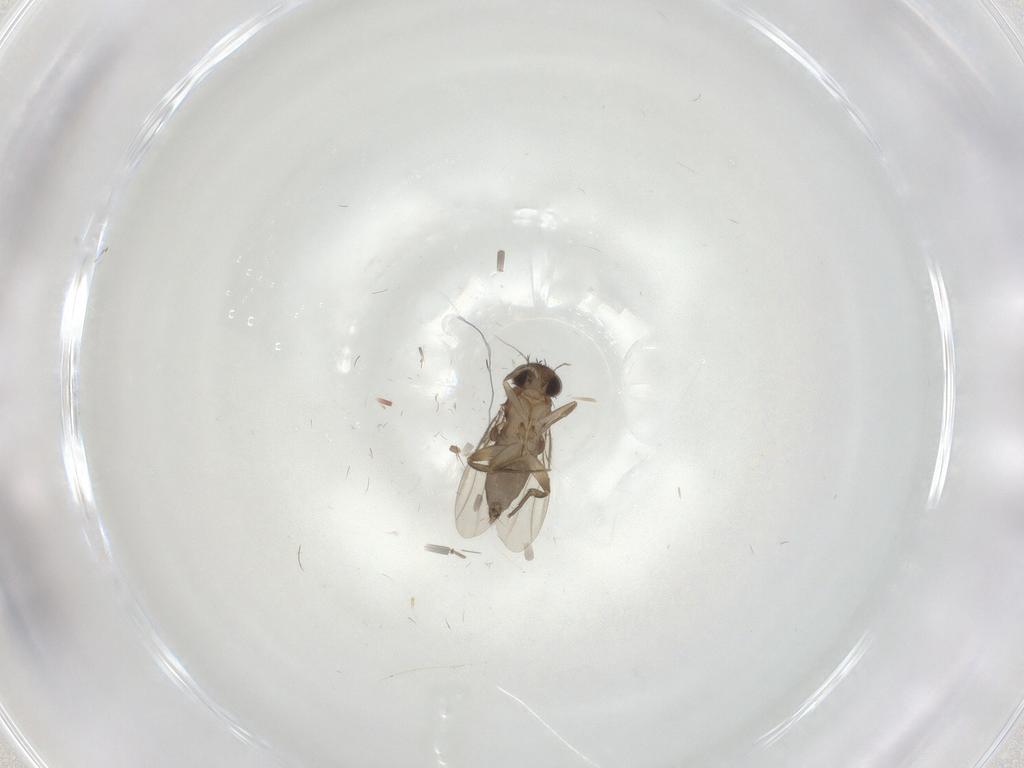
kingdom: Animalia
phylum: Arthropoda
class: Insecta
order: Diptera
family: Phoridae
